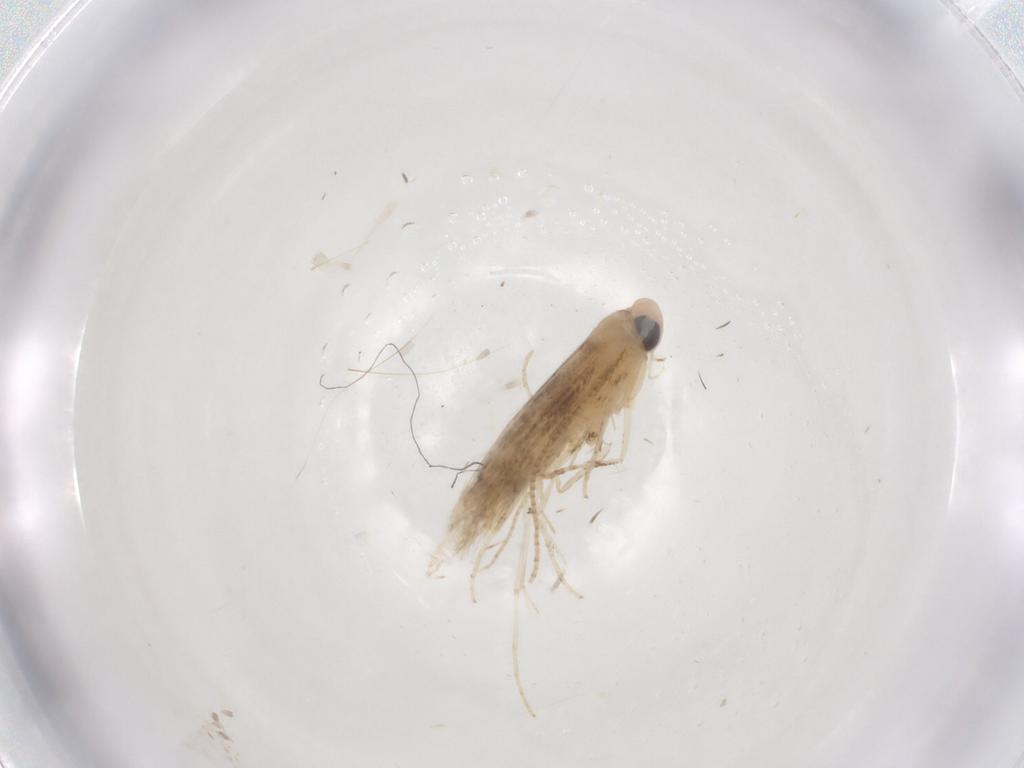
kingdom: Animalia
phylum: Arthropoda
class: Insecta
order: Lepidoptera
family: Gracillariidae
